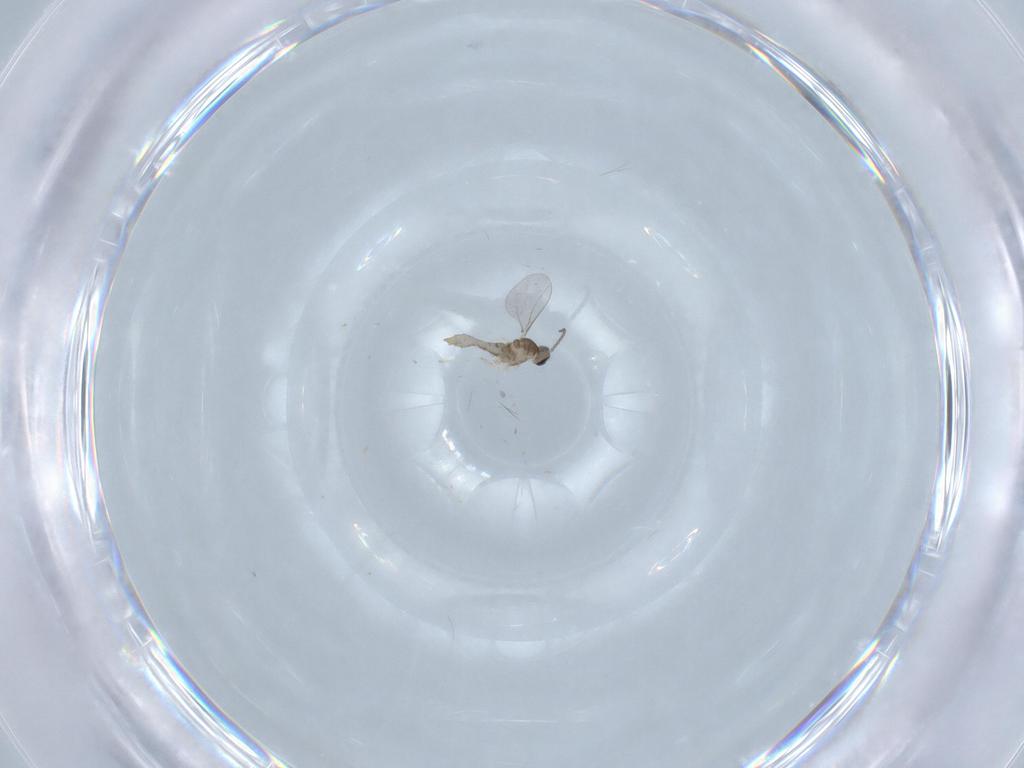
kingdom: Animalia
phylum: Arthropoda
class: Insecta
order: Diptera
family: Cecidomyiidae
